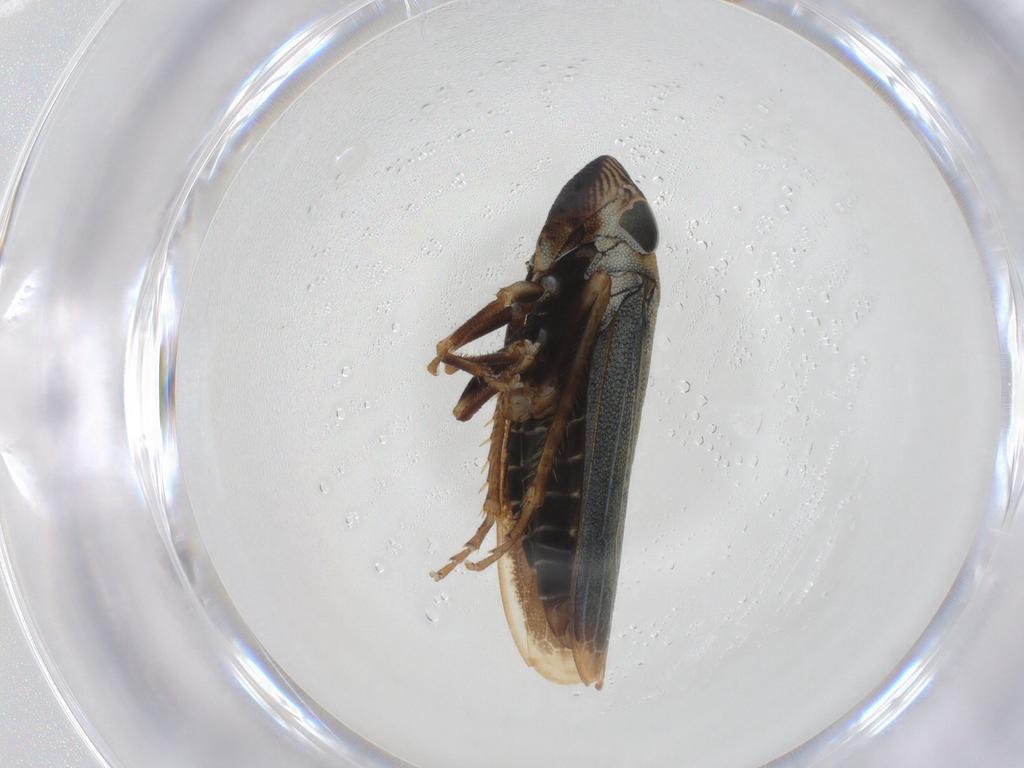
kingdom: Animalia
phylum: Arthropoda
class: Insecta
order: Hemiptera
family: Cicadellidae
